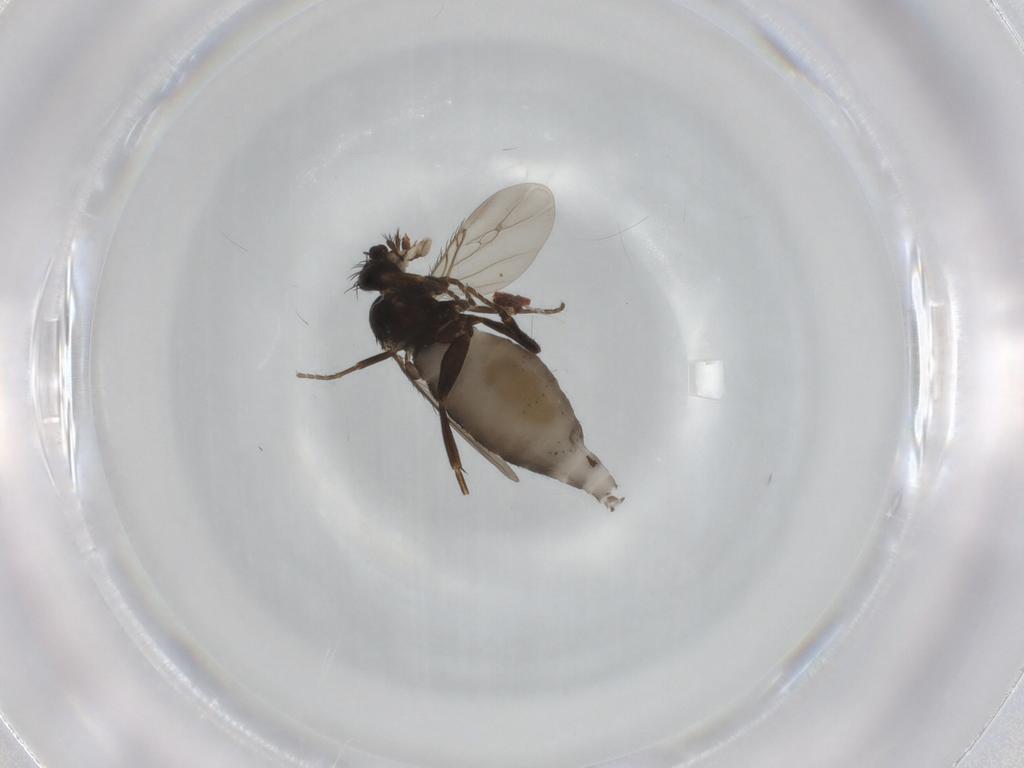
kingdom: Animalia
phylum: Arthropoda
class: Insecta
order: Diptera
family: Phoridae
